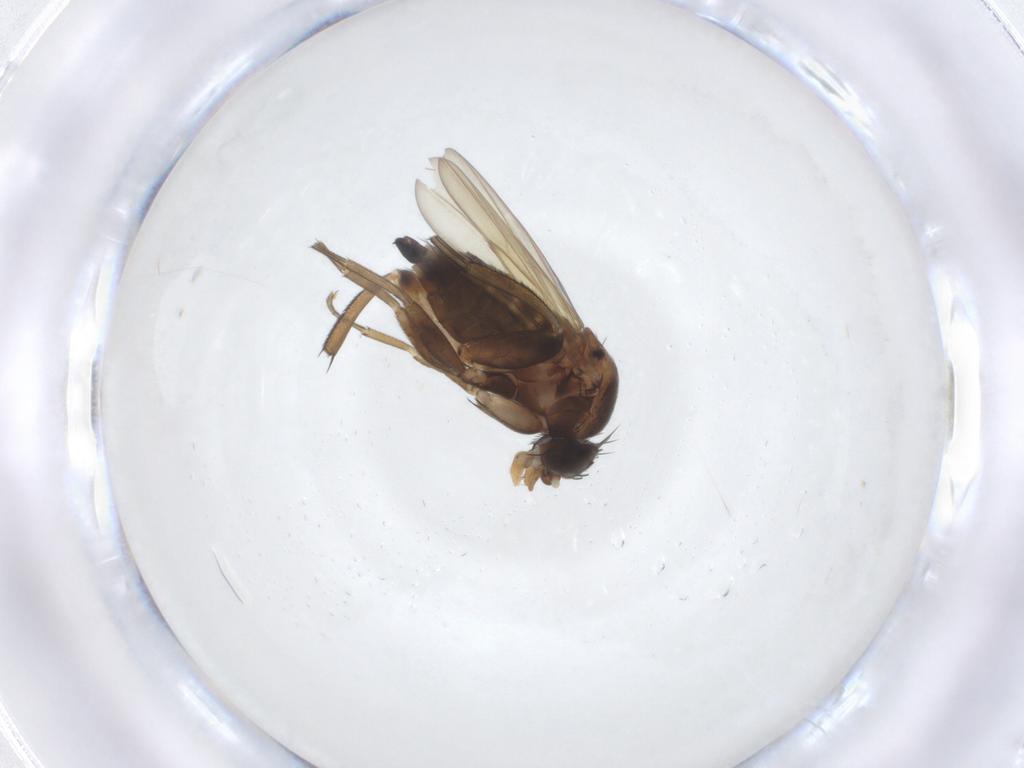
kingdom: Animalia
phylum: Arthropoda
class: Insecta
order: Diptera
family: Phoridae
